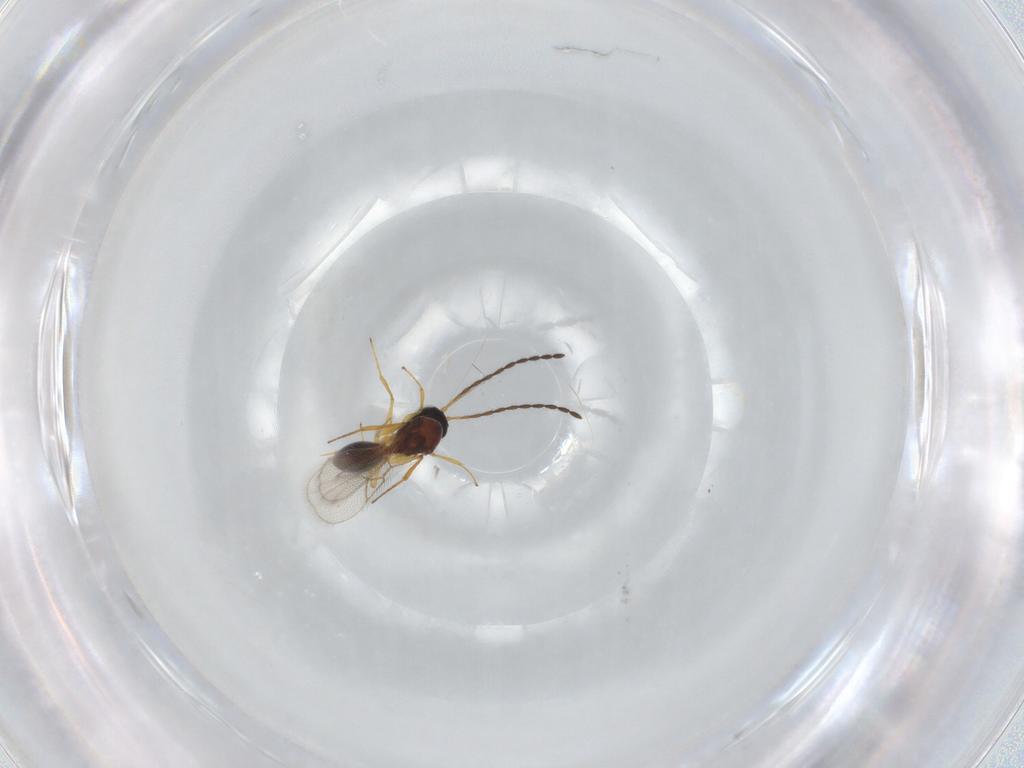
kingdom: Animalia
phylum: Arthropoda
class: Insecta
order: Hymenoptera
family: Figitidae
